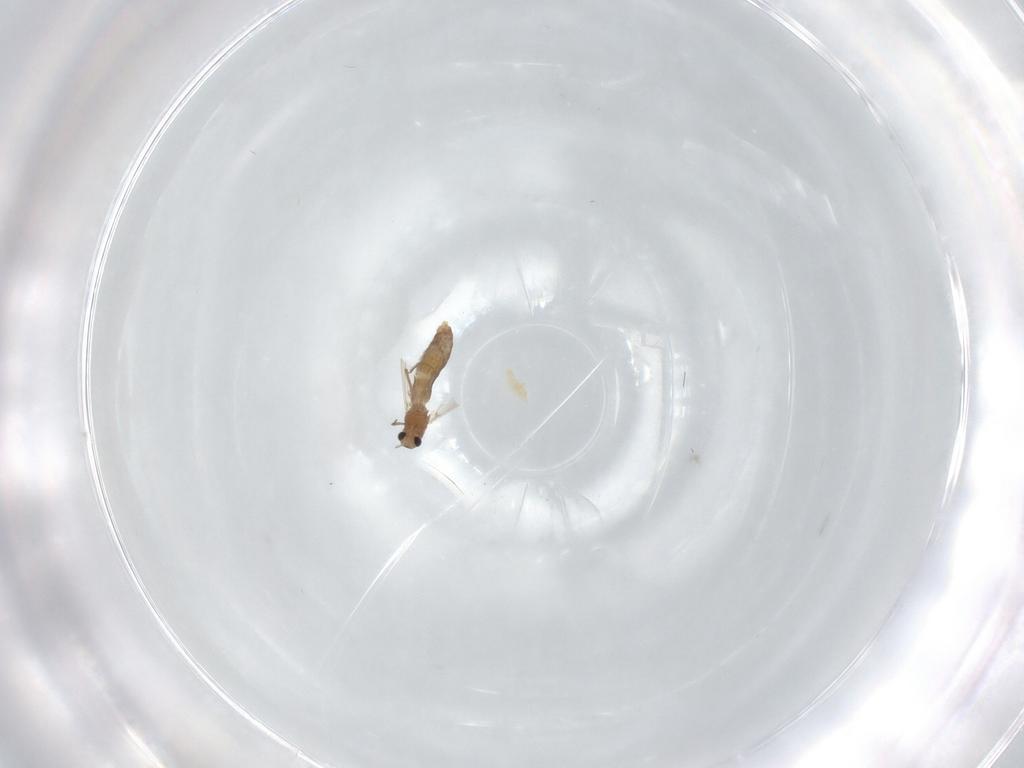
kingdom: Animalia
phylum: Arthropoda
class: Insecta
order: Diptera
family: Chironomidae
